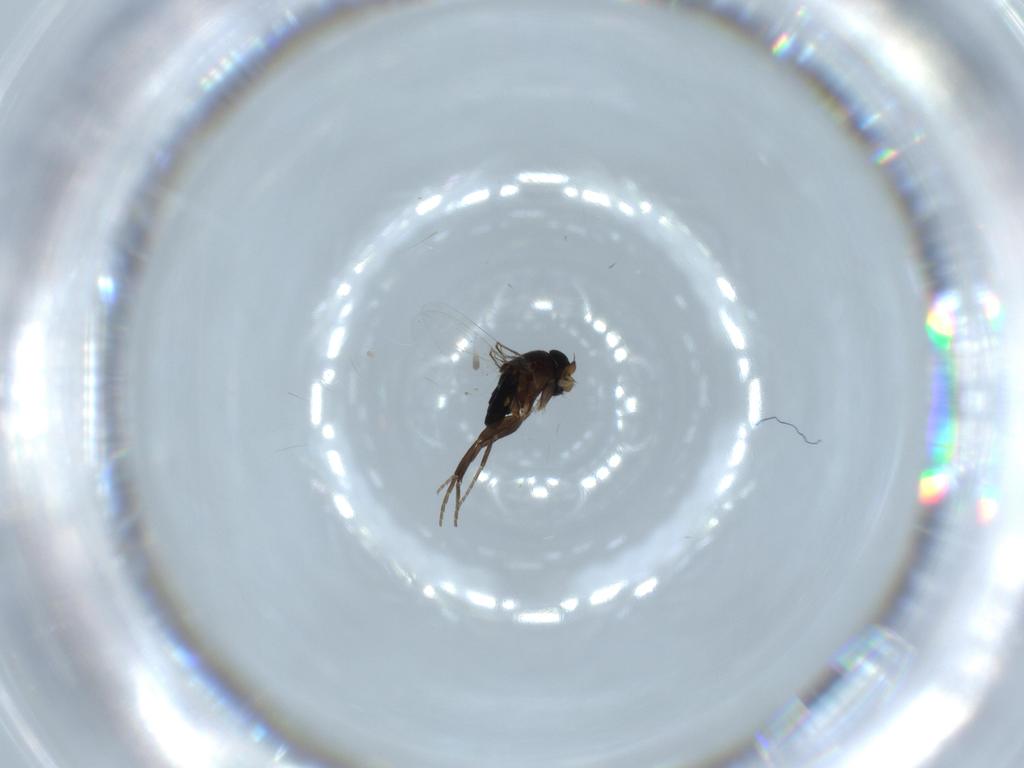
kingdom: Animalia
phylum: Arthropoda
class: Insecta
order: Diptera
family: Phoridae
